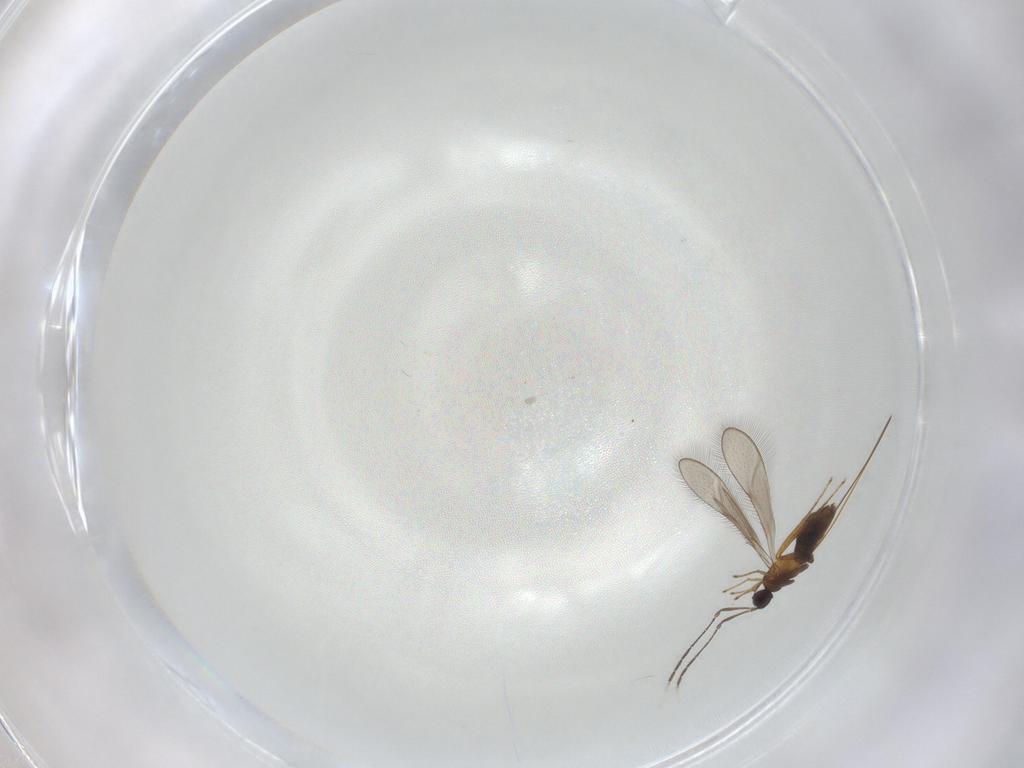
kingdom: Animalia
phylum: Arthropoda
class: Insecta
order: Hymenoptera
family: Mymaridae
